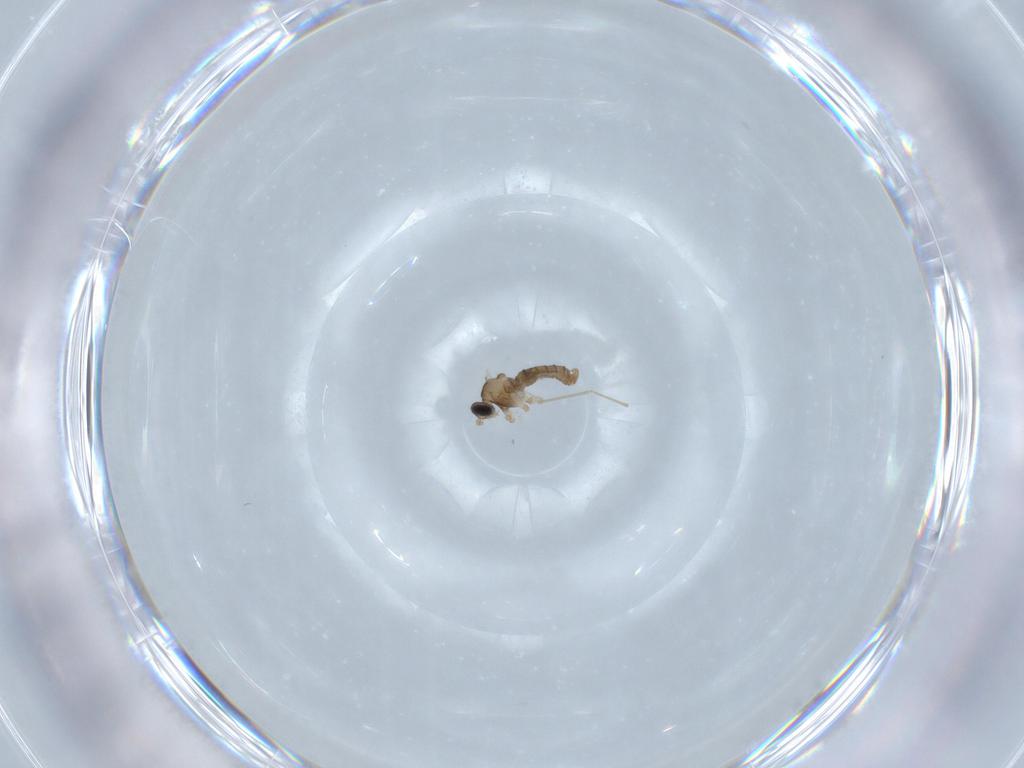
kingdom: Animalia
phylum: Arthropoda
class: Insecta
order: Diptera
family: Cecidomyiidae
